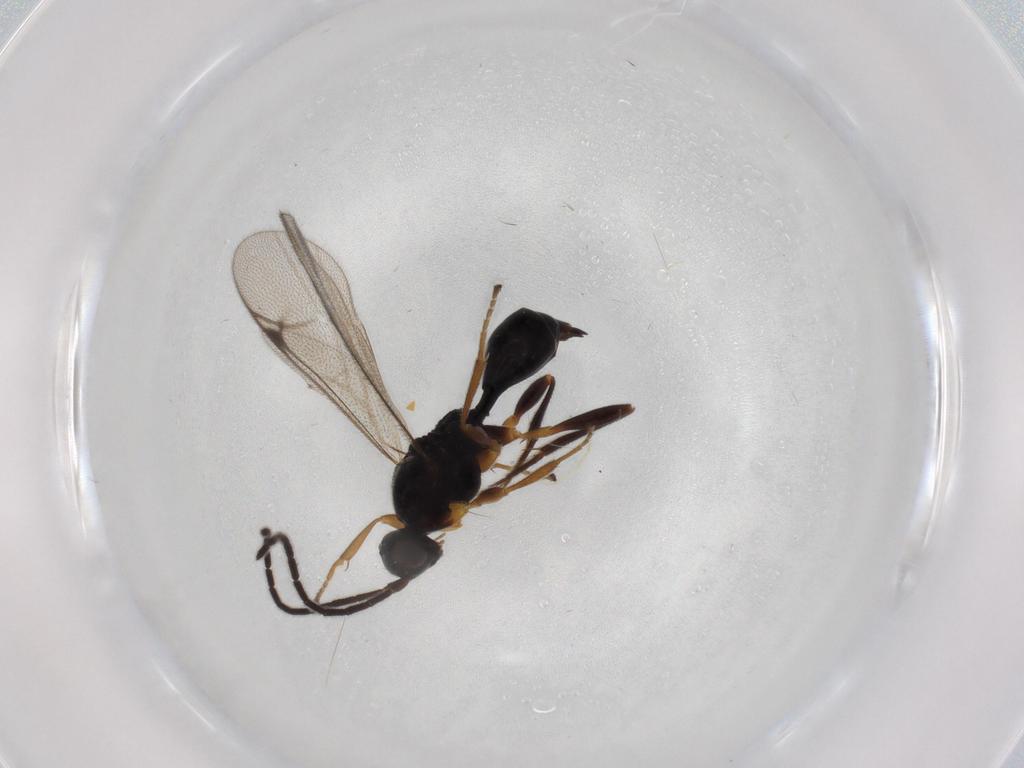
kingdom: Animalia
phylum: Arthropoda
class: Insecta
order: Hymenoptera
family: Proctotrupidae
